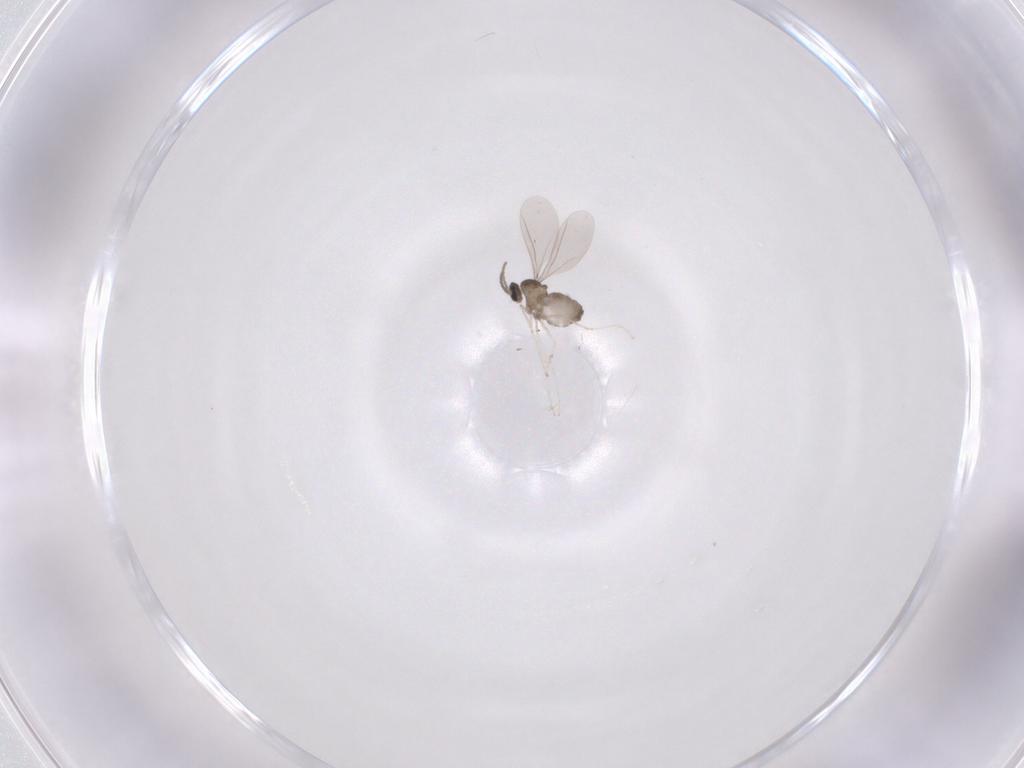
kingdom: Animalia
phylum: Arthropoda
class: Insecta
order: Diptera
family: Cecidomyiidae
